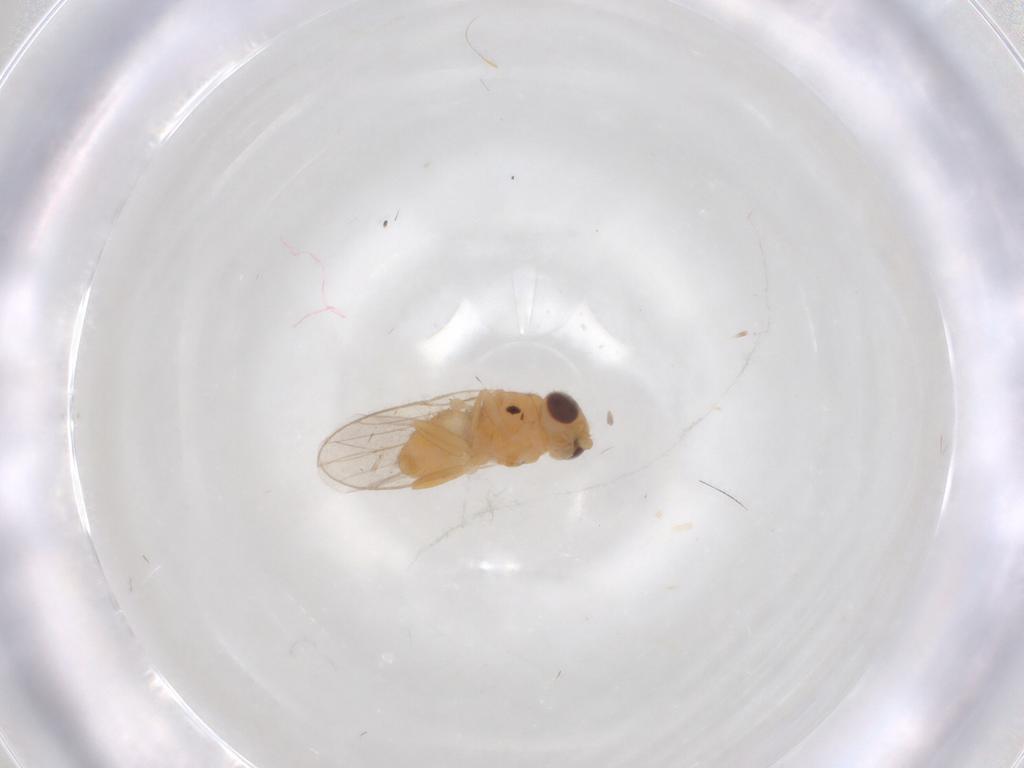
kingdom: Animalia
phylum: Arthropoda
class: Insecta
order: Diptera
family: Chloropidae
